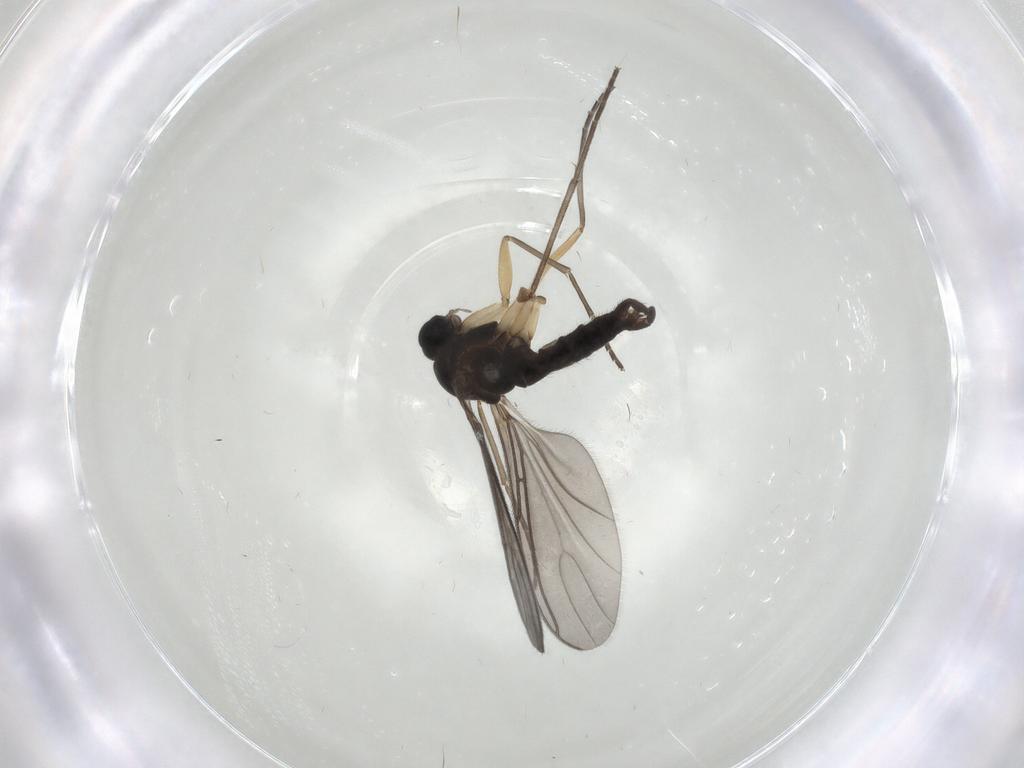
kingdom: Animalia
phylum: Arthropoda
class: Insecta
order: Diptera
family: Sciaridae
